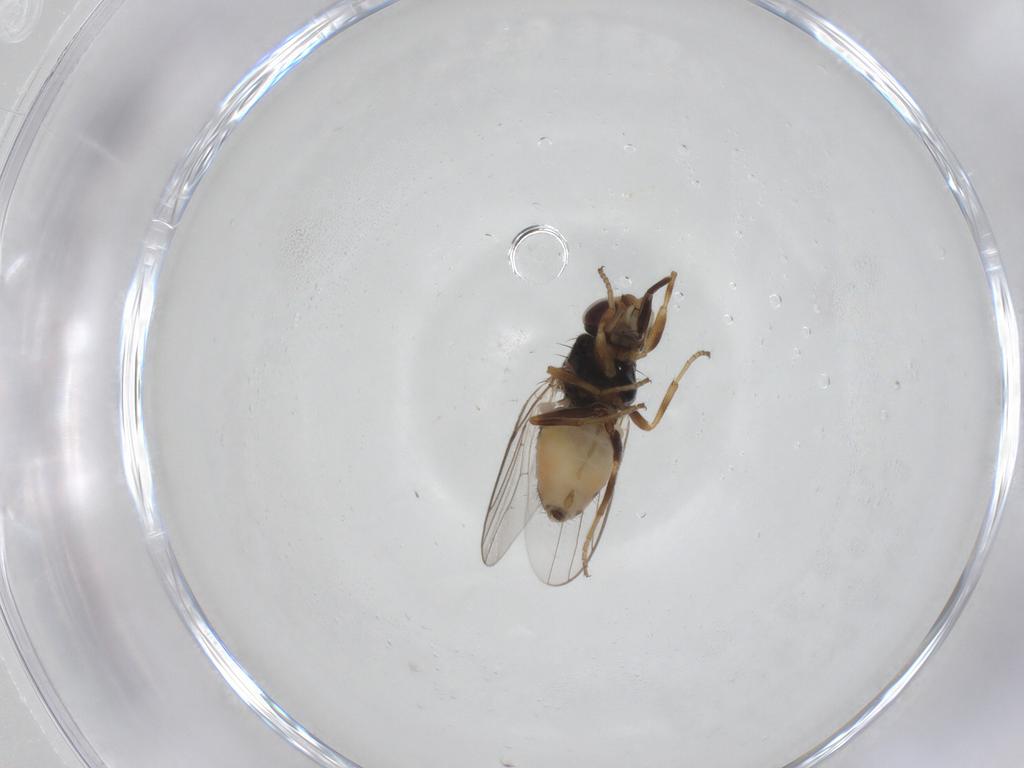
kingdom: Animalia
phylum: Arthropoda
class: Insecta
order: Diptera
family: Chloropidae
